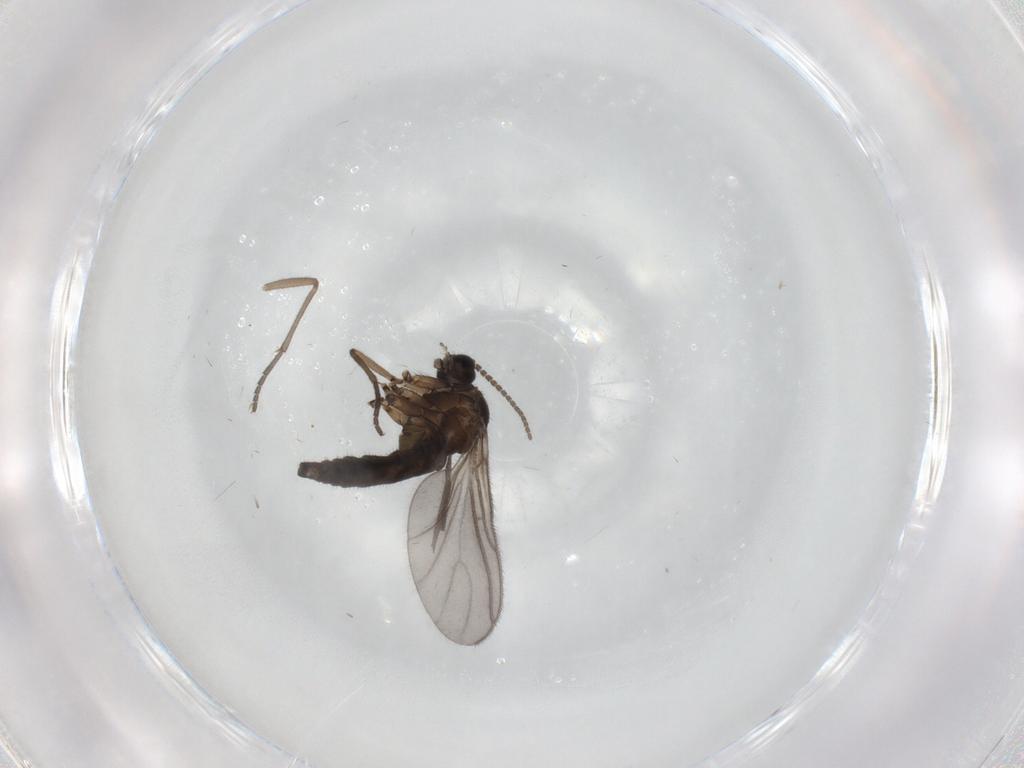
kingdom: Animalia
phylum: Arthropoda
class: Insecta
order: Diptera
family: Sciaridae
